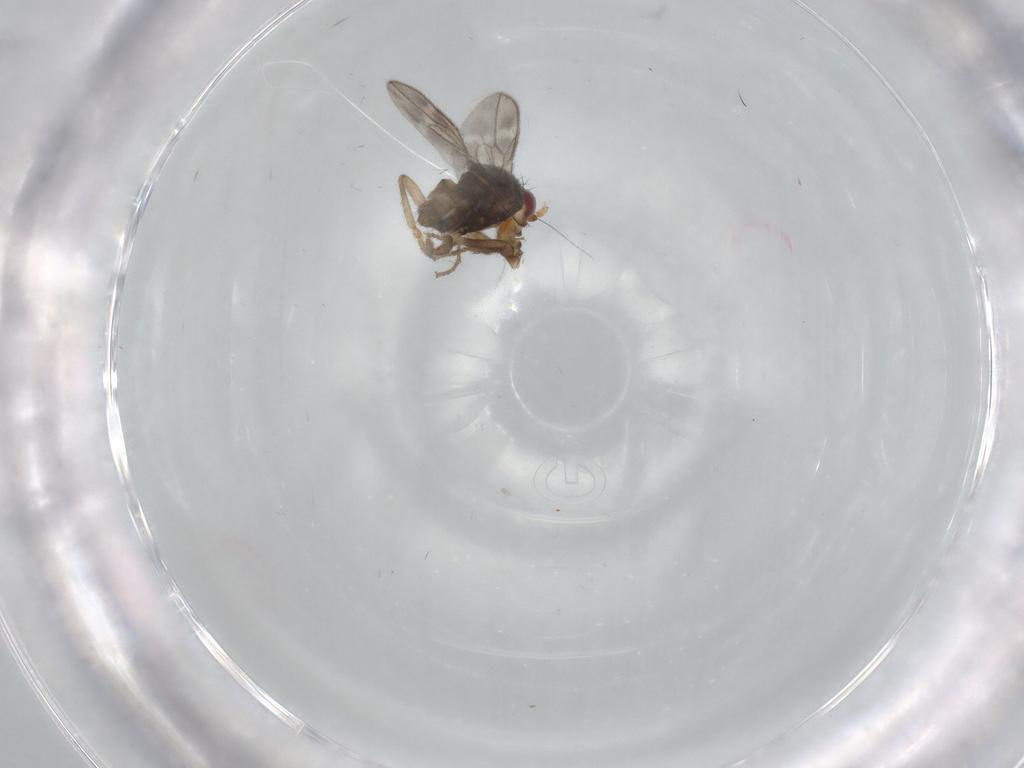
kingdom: Animalia
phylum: Arthropoda
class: Insecta
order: Diptera
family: Sphaeroceridae
